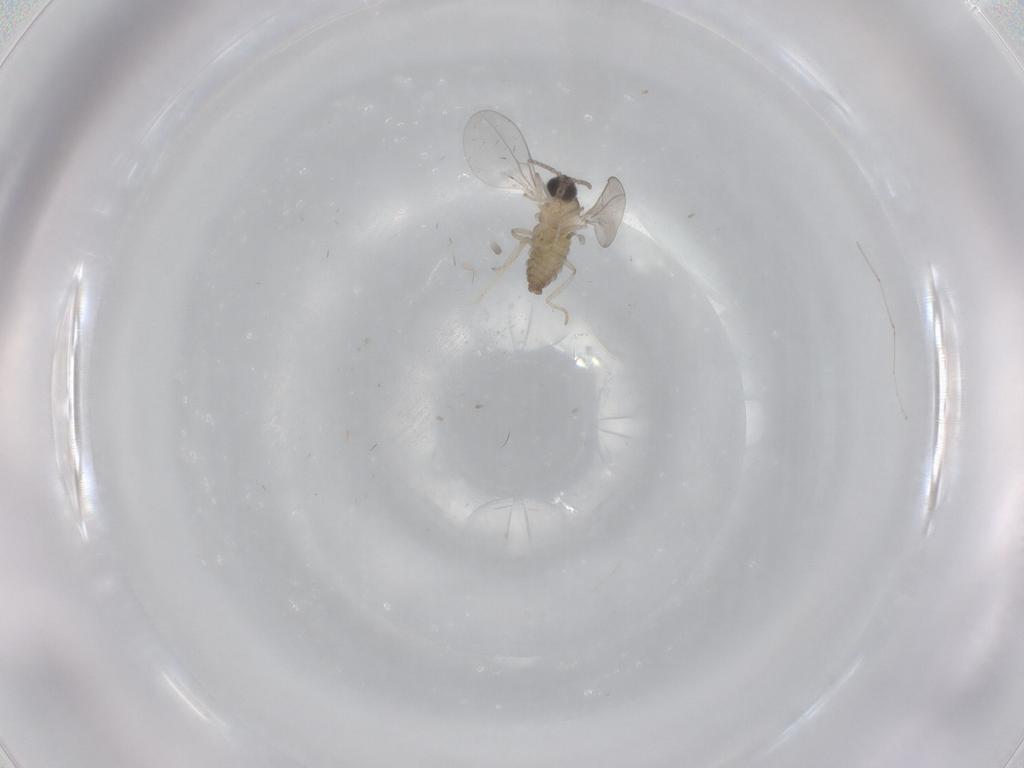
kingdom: Animalia
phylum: Arthropoda
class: Insecta
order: Diptera
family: Cecidomyiidae
